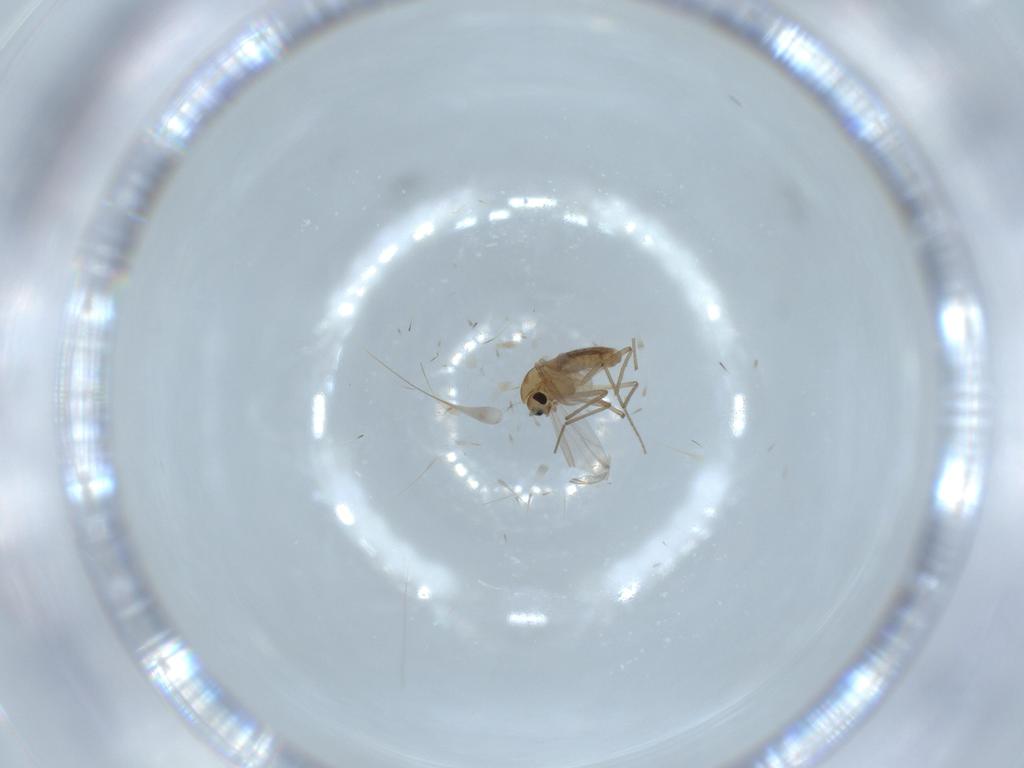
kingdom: Animalia
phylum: Arthropoda
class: Insecta
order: Diptera
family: Chironomidae
